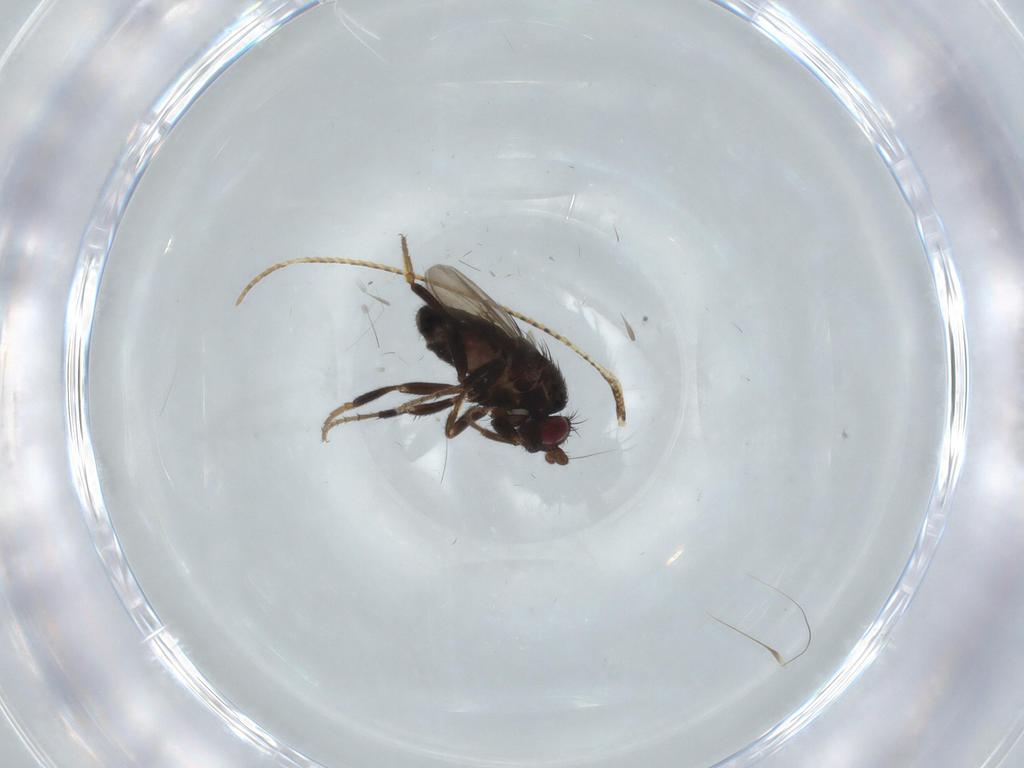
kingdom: Animalia
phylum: Arthropoda
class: Insecta
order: Diptera
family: Sphaeroceridae
